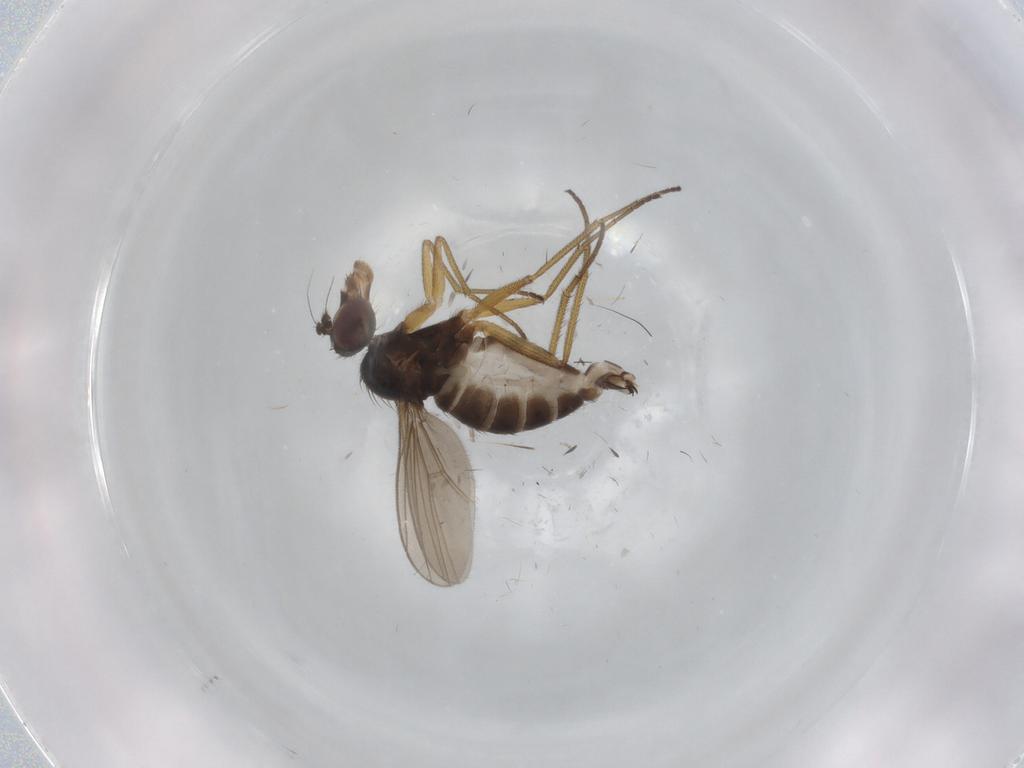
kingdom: Animalia
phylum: Arthropoda
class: Insecta
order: Diptera
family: Dolichopodidae
